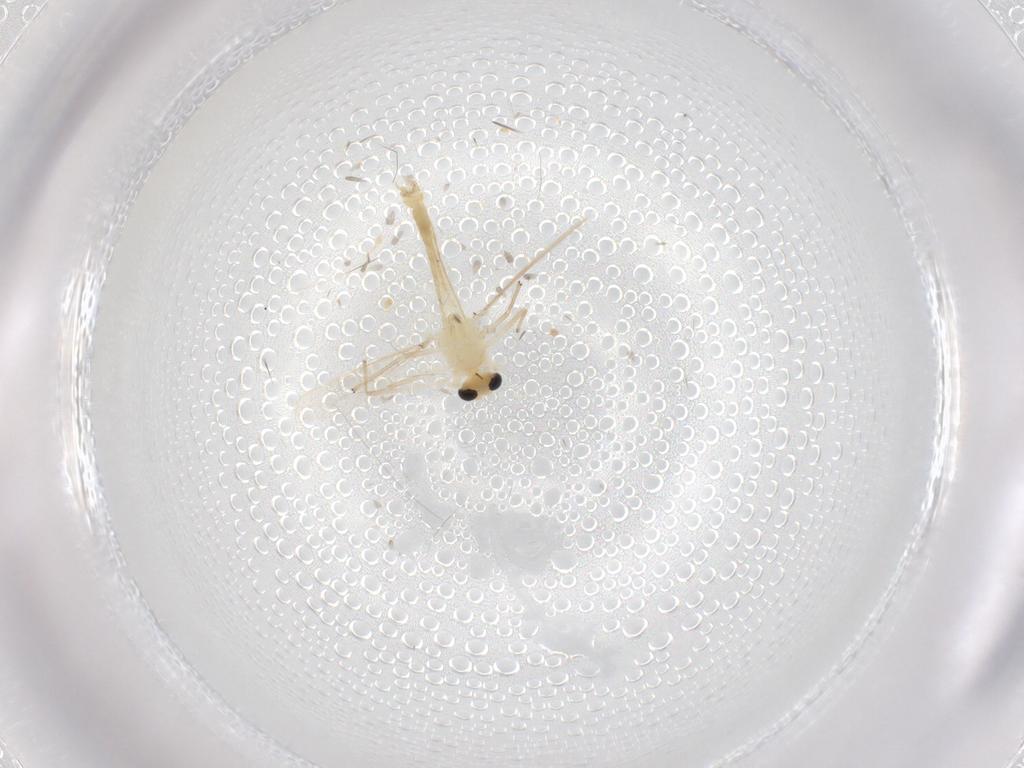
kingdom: Animalia
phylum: Arthropoda
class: Insecta
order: Diptera
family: Chironomidae
